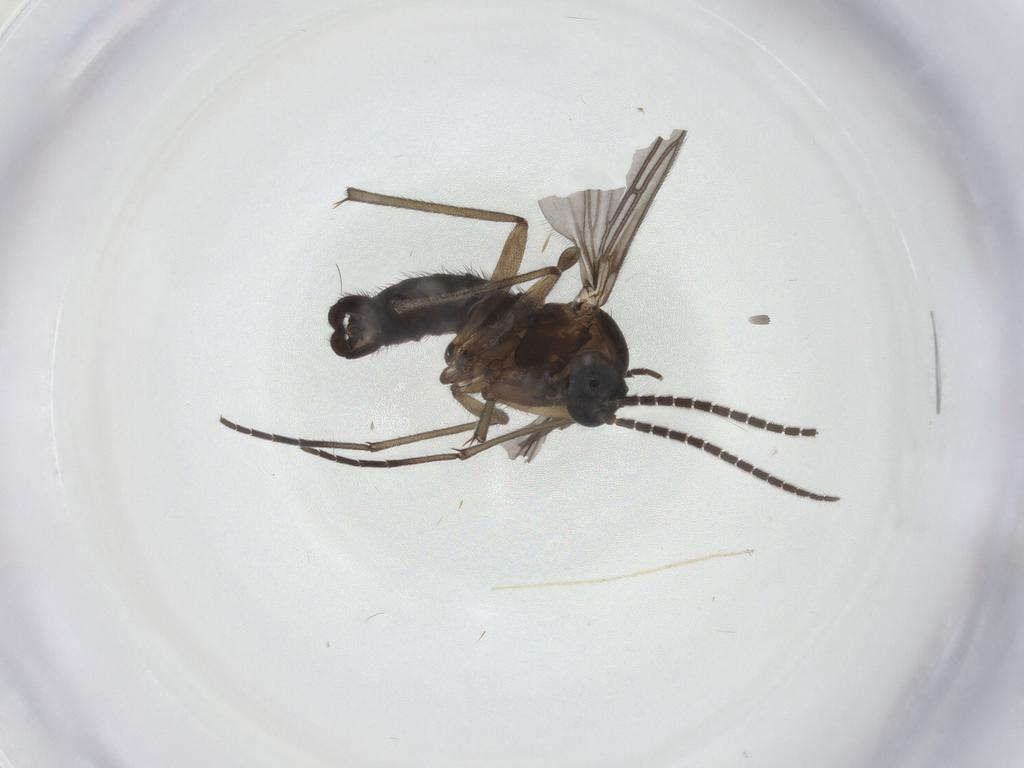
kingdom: Animalia
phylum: Arthropoda
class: Insecta
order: Diptera
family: Sciaridae
